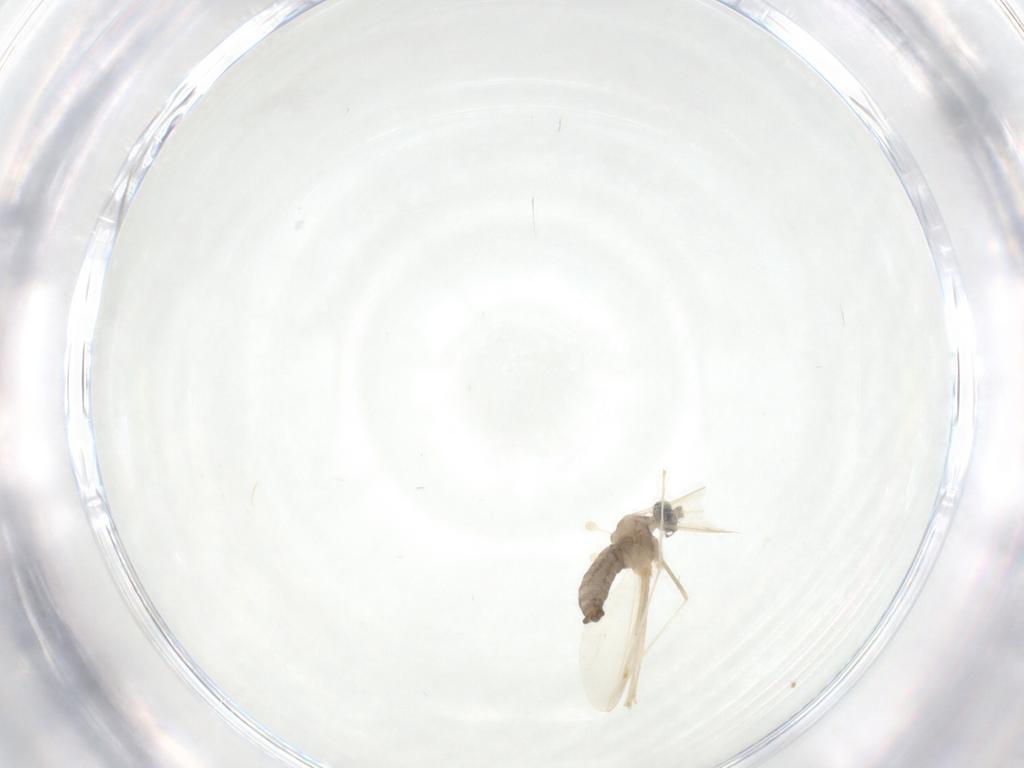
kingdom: Animalia
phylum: Arthropoda
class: Insecta
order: Diptera
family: Cecidomyiidae
